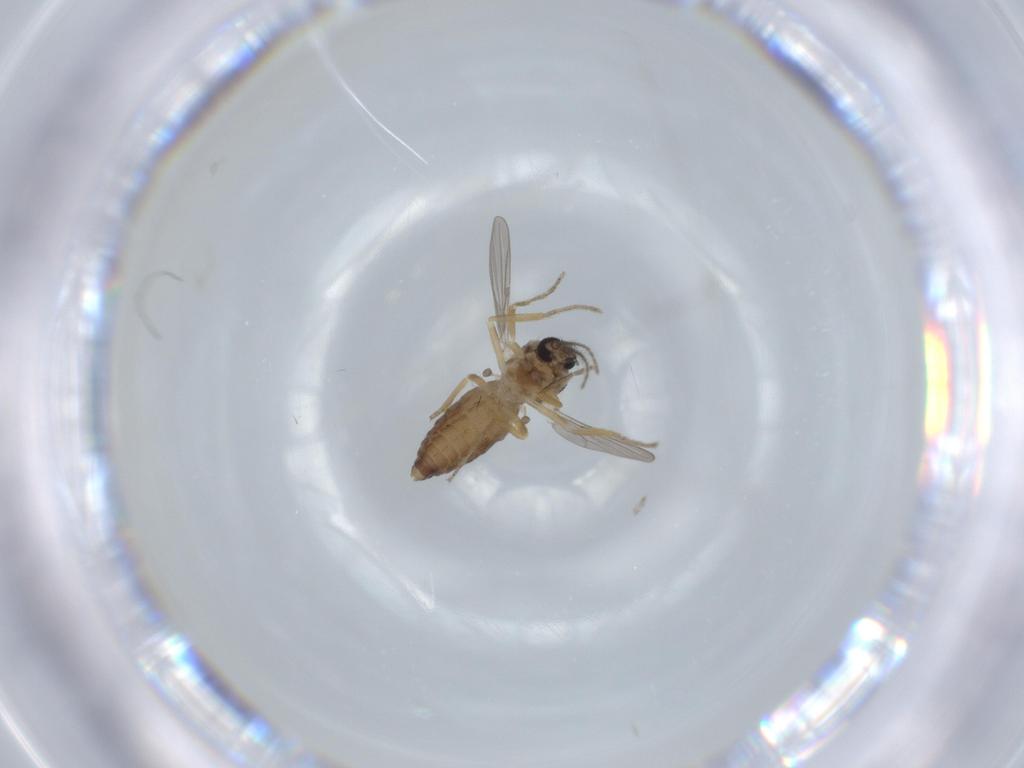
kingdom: Animalia
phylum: Arthropoda
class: Insecta
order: Diptera
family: Ceratopogonidae
